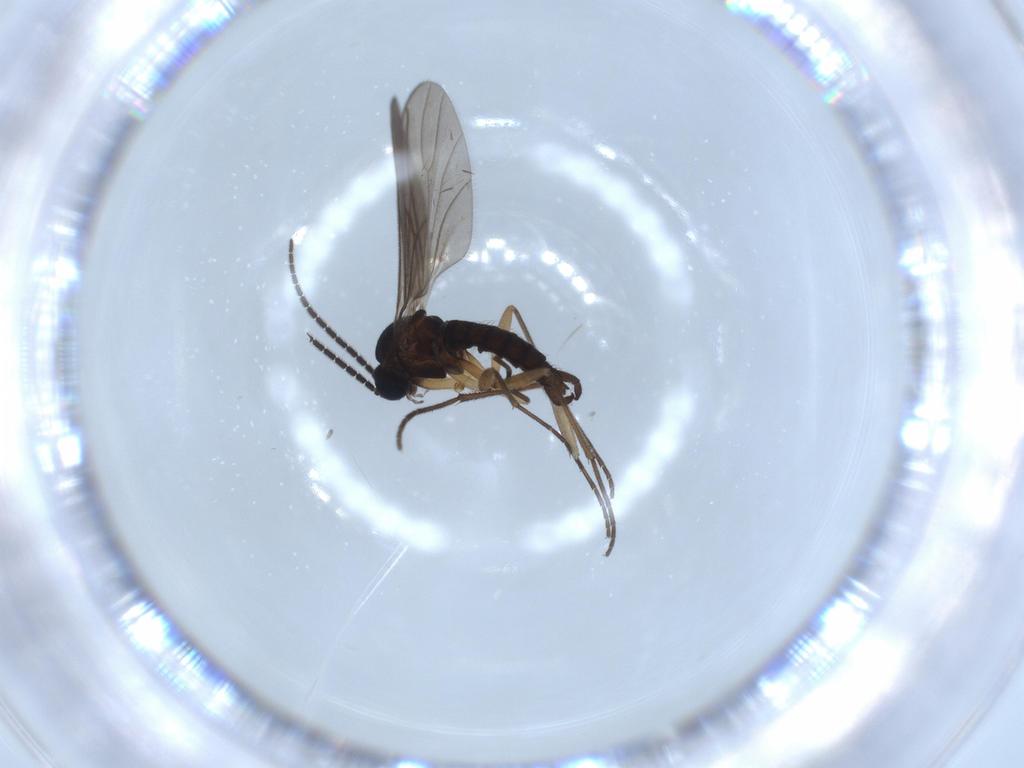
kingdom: Animalia
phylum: Arthropoda
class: Insecta
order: Diptera
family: Sciaridae
